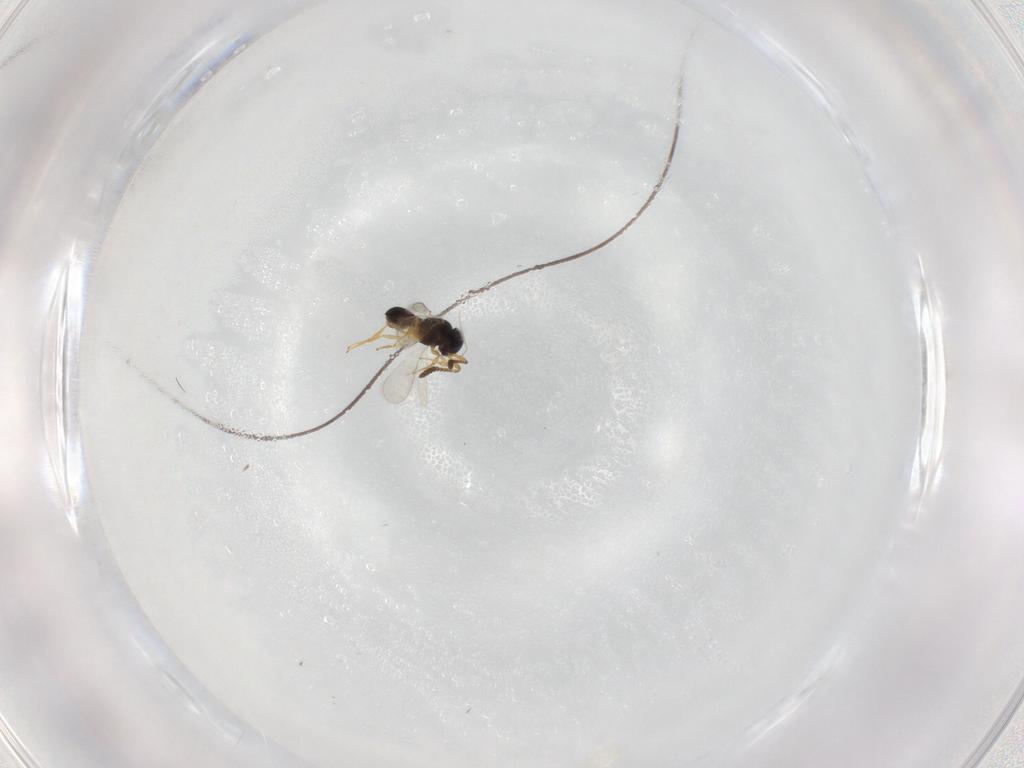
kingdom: Animalia
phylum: Arthropoda
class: Insecta
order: Hymenoptera
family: Scelionidae
